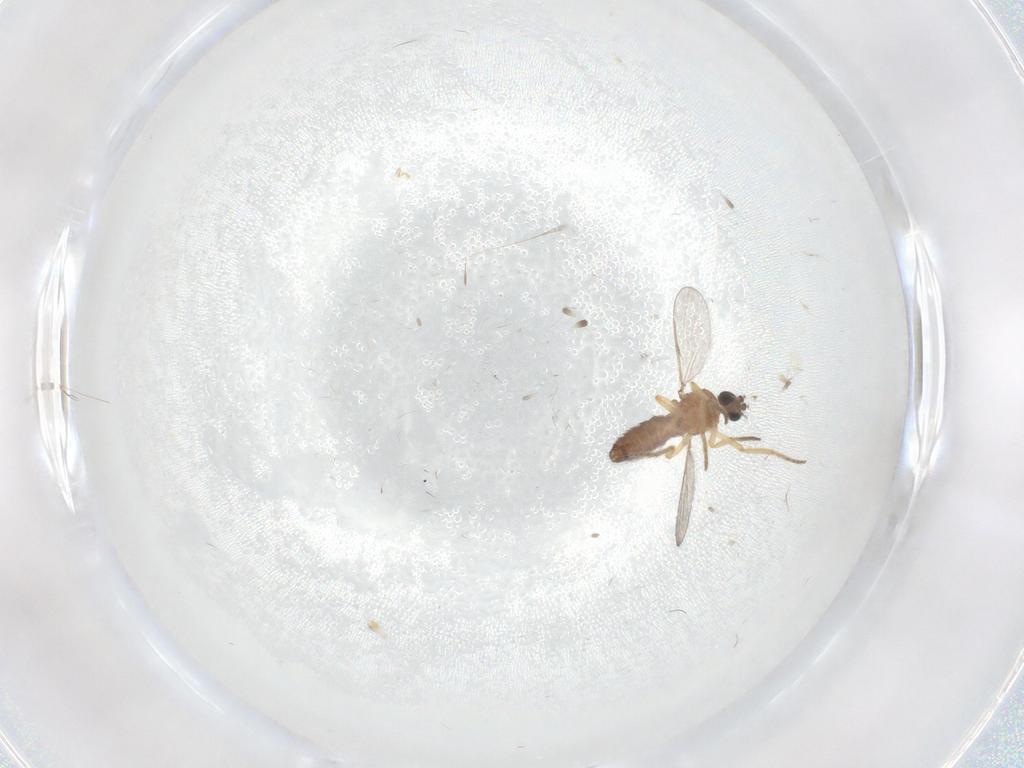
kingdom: Animalia
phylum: Arthropoda
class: Insecta
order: Diptera
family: Ceratopogonidae
